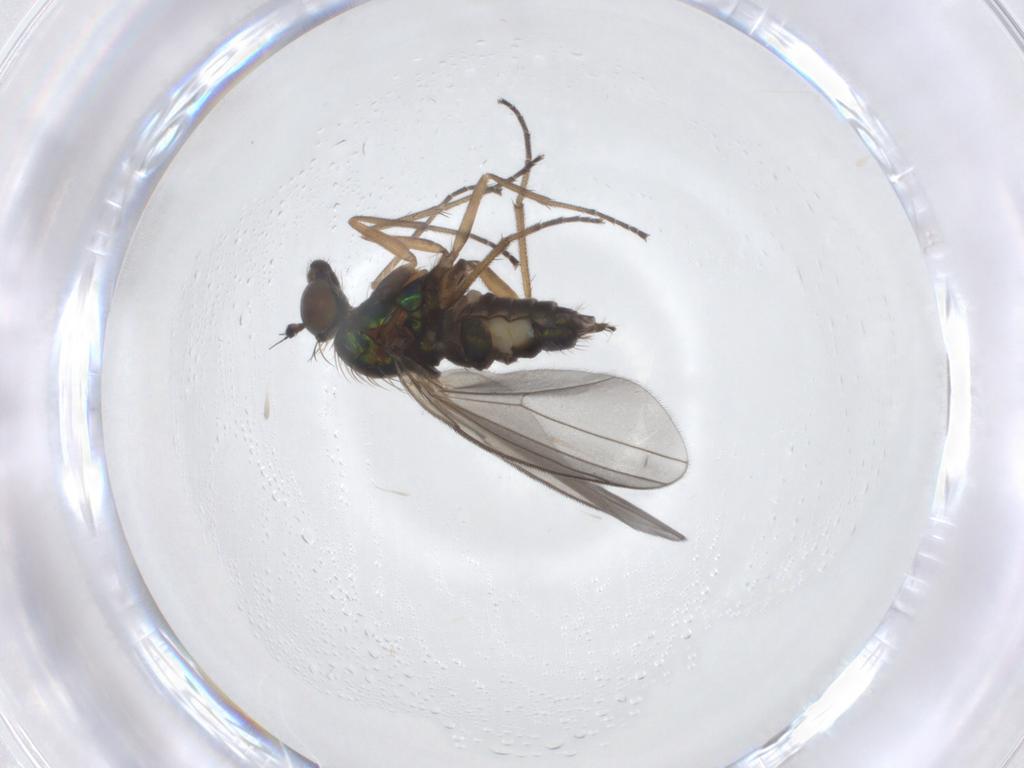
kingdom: Animalia
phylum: Arthropoda
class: Insecta
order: Diptera
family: Dolichopodidae
